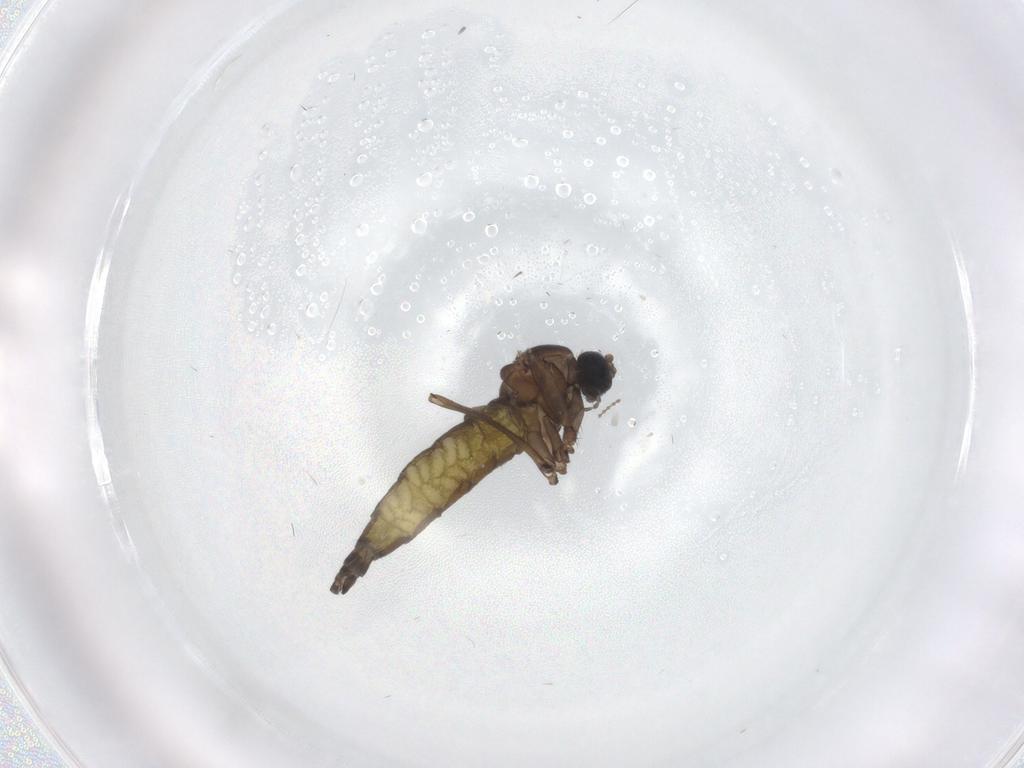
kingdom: Animalia
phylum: Arthropoda
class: Insecta
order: Diptera
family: Sciaridae
